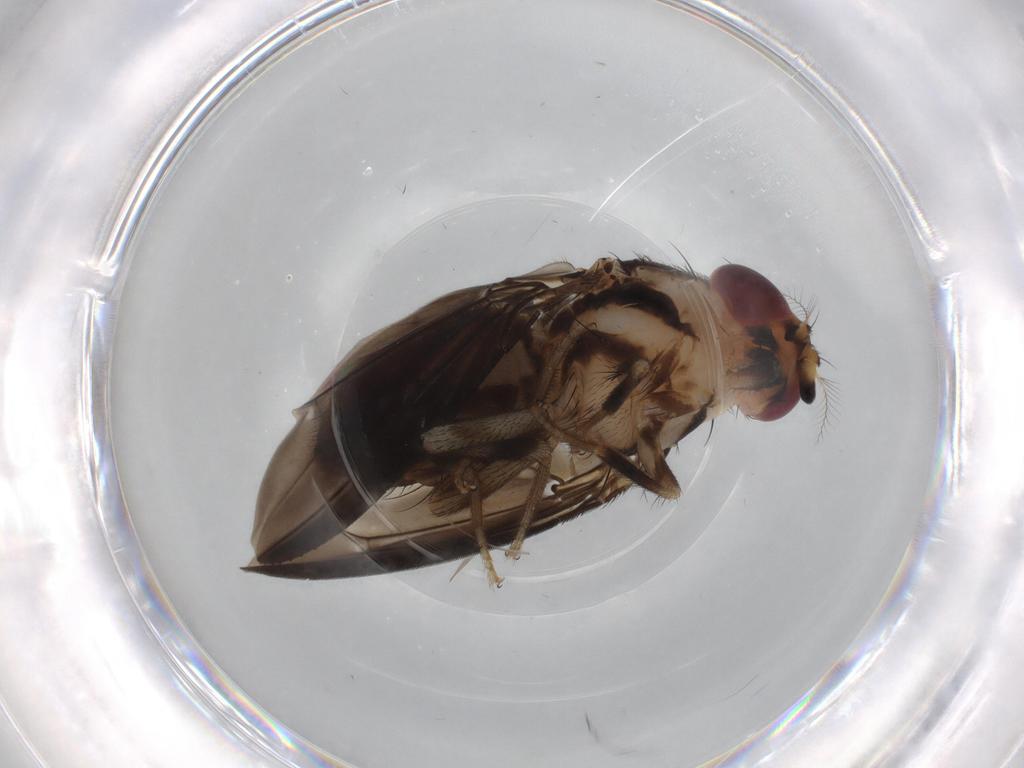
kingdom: Animalia
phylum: Arthropoda
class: Insecta
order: Diptera
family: Psychodidae
